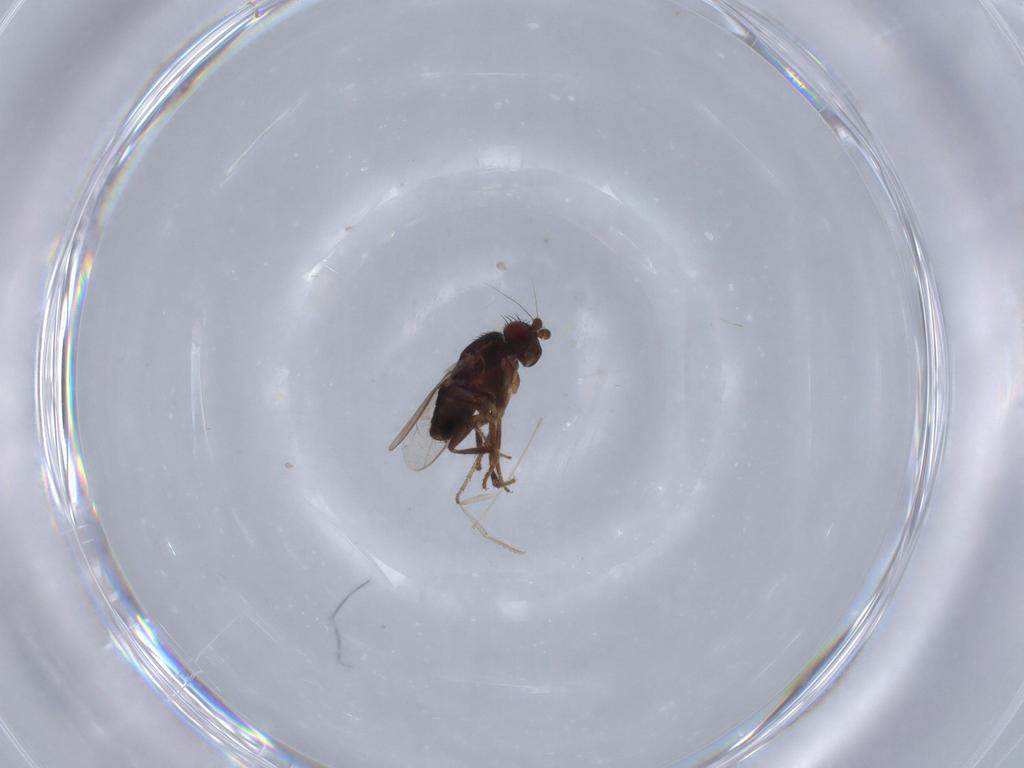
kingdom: Animalia
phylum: Arthropoda
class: Insecta
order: Diptera
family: Sphaeroceridae
